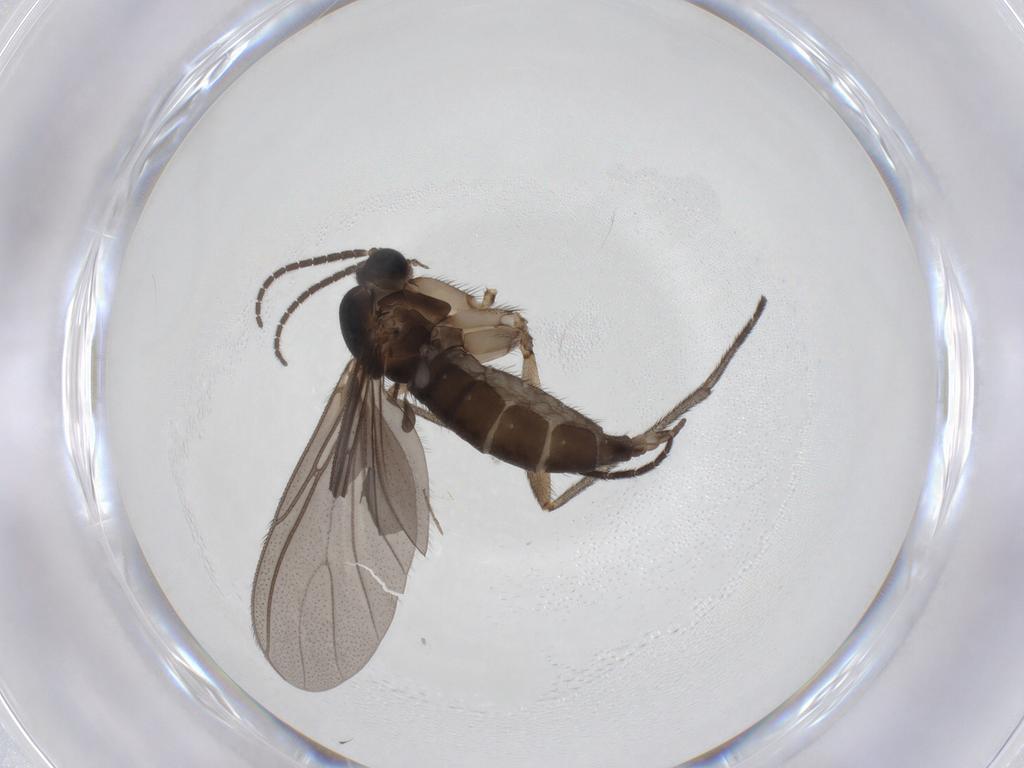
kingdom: Animalia
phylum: Arthropoda
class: Insecta
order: Diptera
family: Sciaridae
